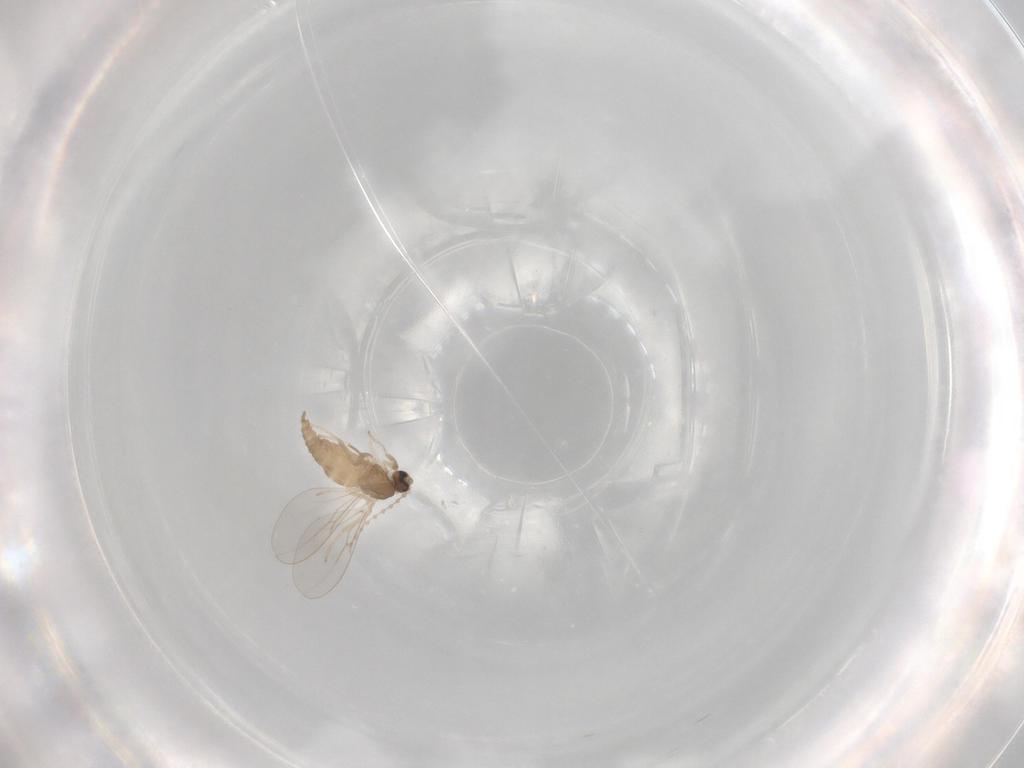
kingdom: Animalia
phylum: Arthropoda
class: Insecta
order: Diptera
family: Cecidomyiidae
